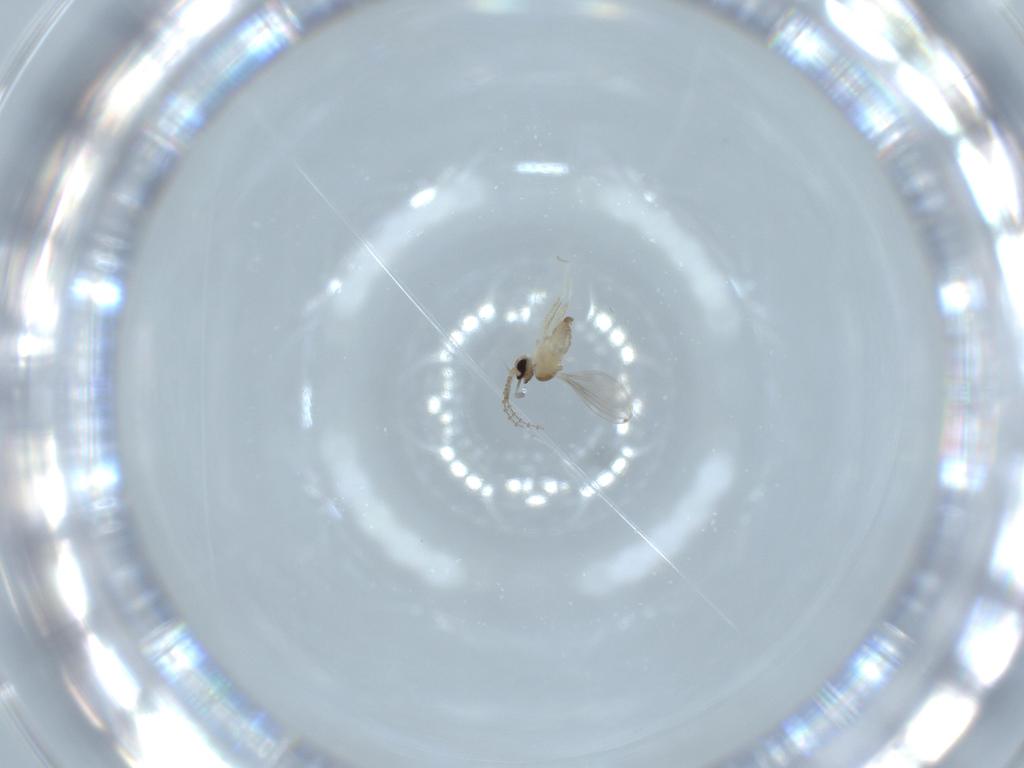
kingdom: Animalia
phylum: Arthropoda
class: Insecta
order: Diptera
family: Cecidomyiidae
